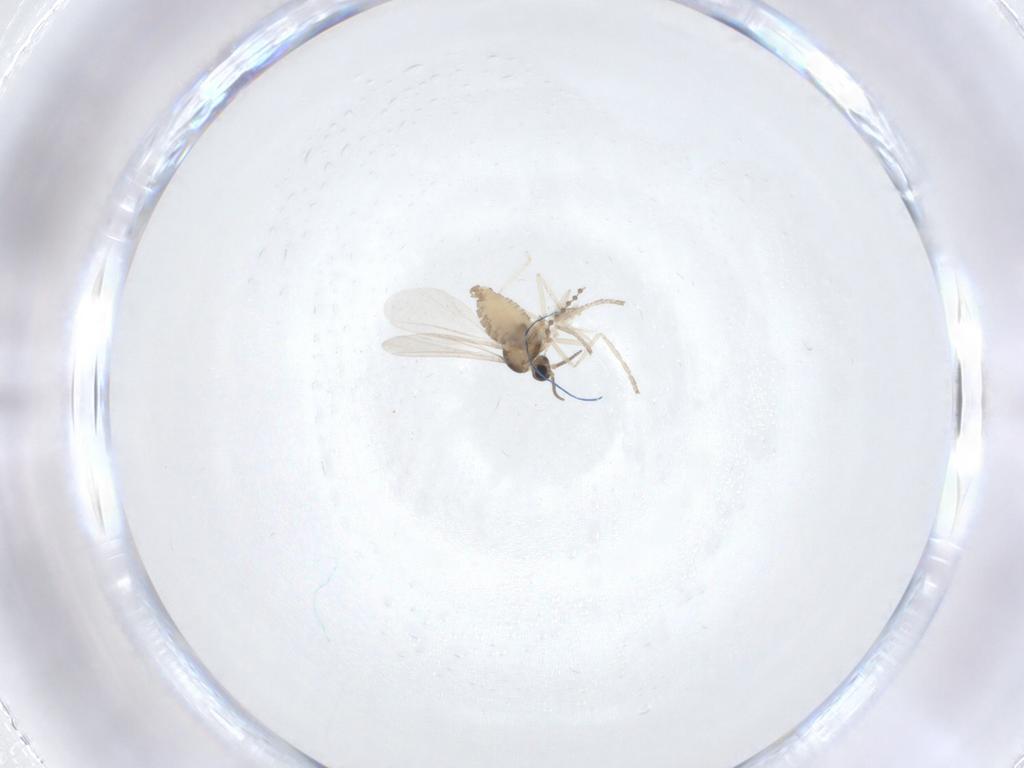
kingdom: Animalia
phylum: Arthropoda
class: Insecta
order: Diptera
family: Cecidomyiidae
